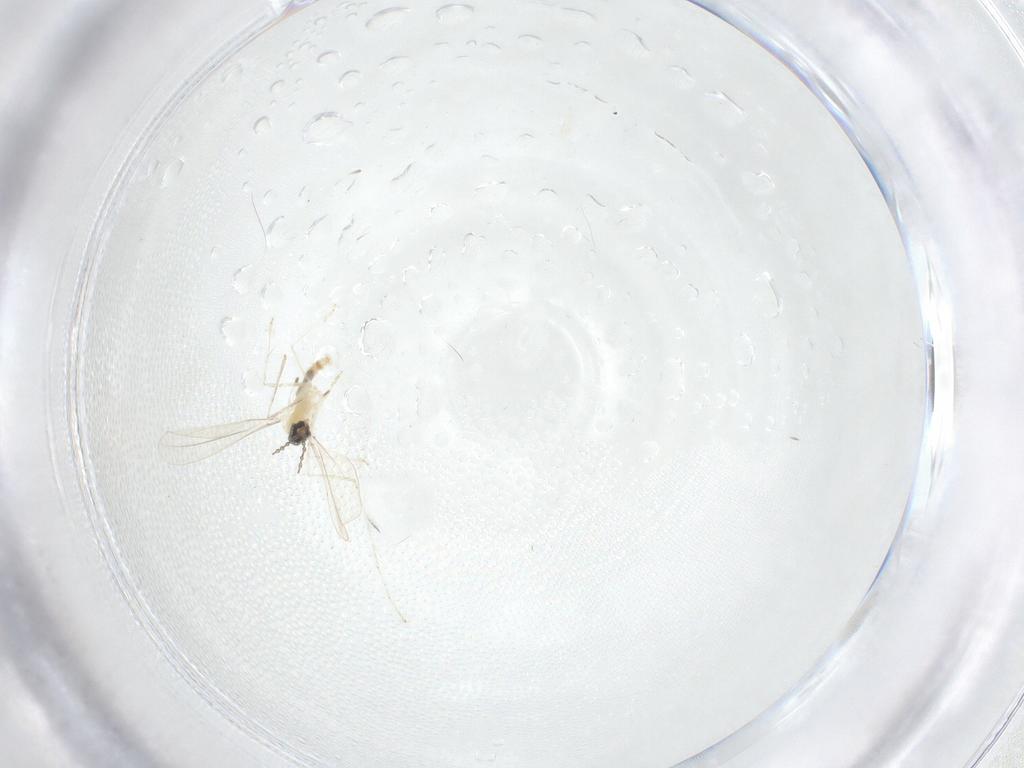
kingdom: Animalia
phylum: Arthropoda
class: Insecta
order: Diptera
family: Cecidomyiidae
